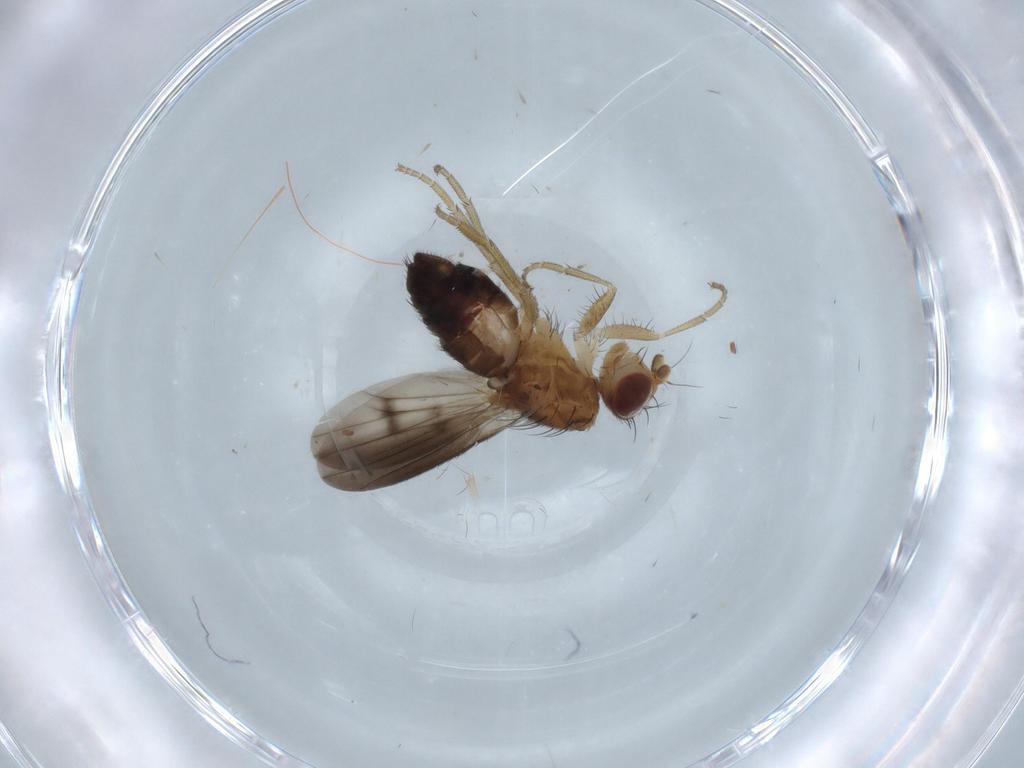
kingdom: Animalia
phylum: Arthropoda
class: Insecta
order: Diptera
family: Heleomyzidae
